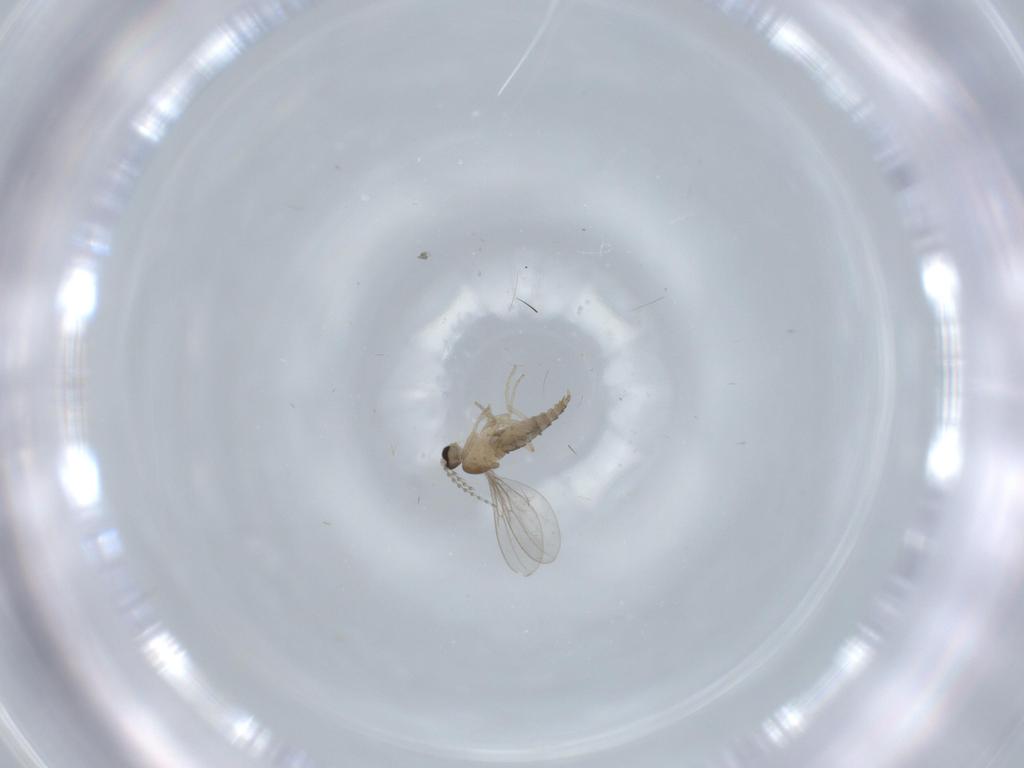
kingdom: Animalia
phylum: Arthropoda
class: Insecta
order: Diptera
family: Cecidomyiidae
